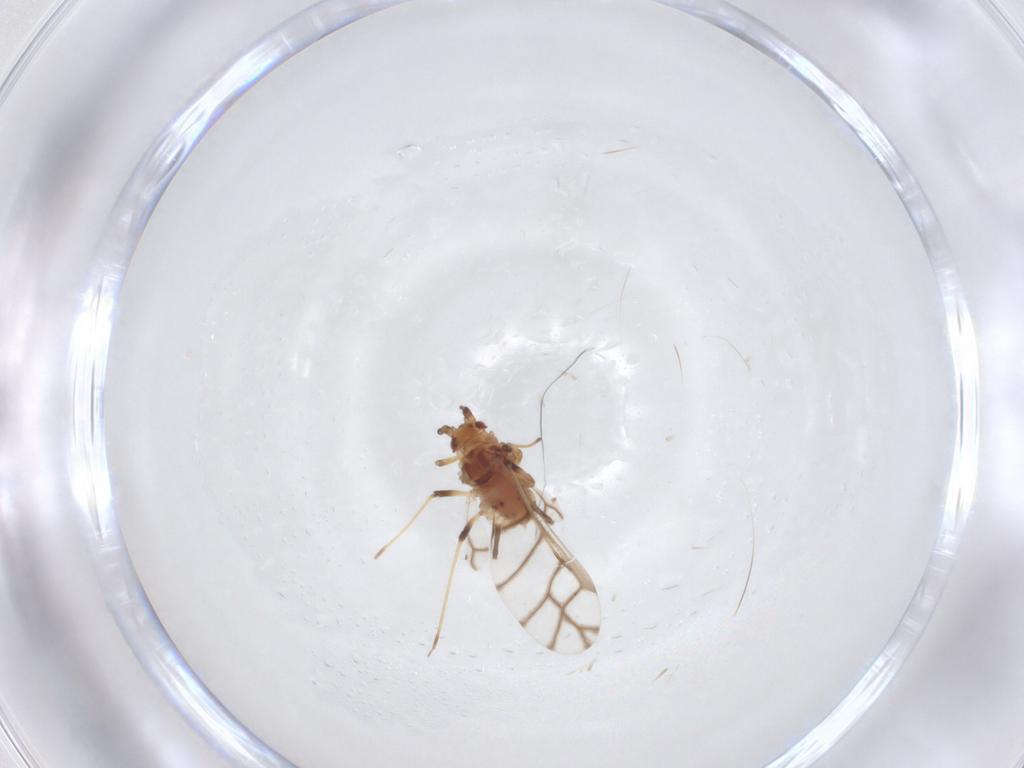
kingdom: Animalia
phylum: Arthropoda
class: Insecta
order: Hemiptera
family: Aphididae
